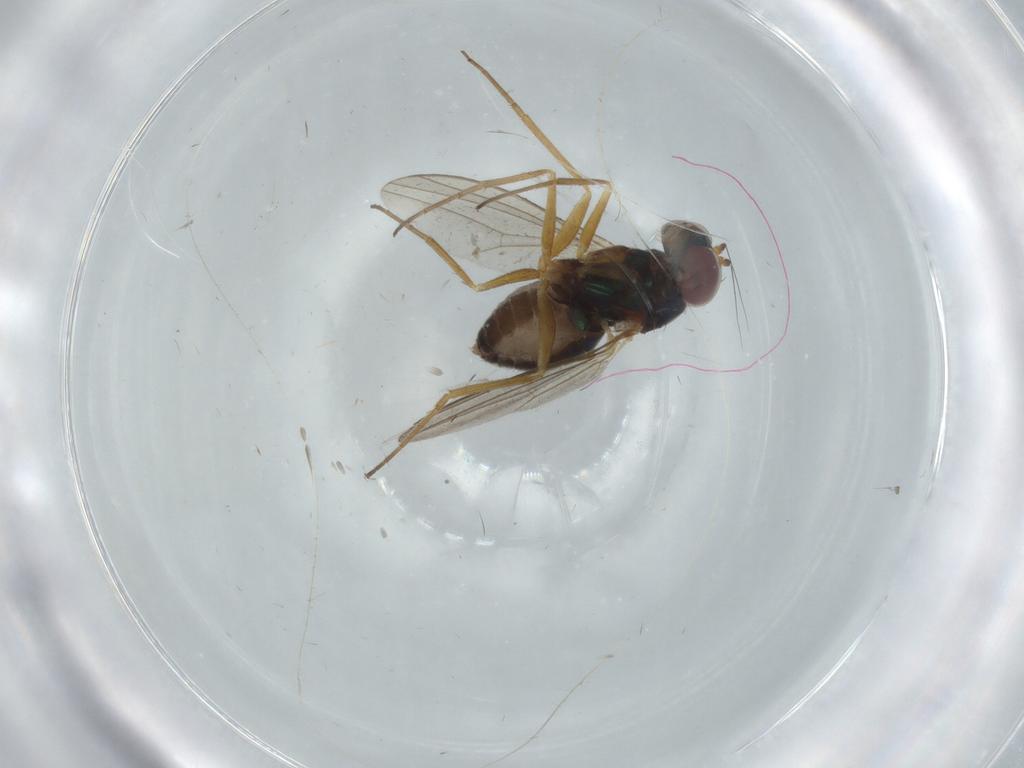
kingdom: Animalia
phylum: Arthropoda
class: Insecta
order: Diptera
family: Dolichopodidae
